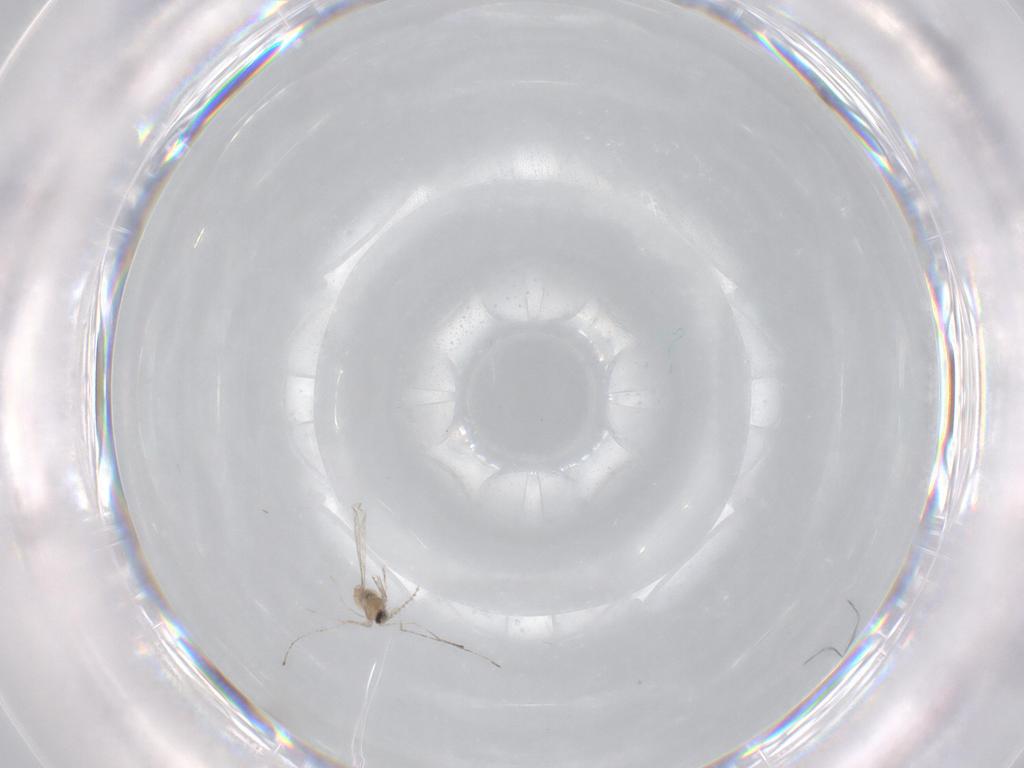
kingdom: Animalia
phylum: Arthropoda
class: Insecta
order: Diptera
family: Cecidomyiidae
